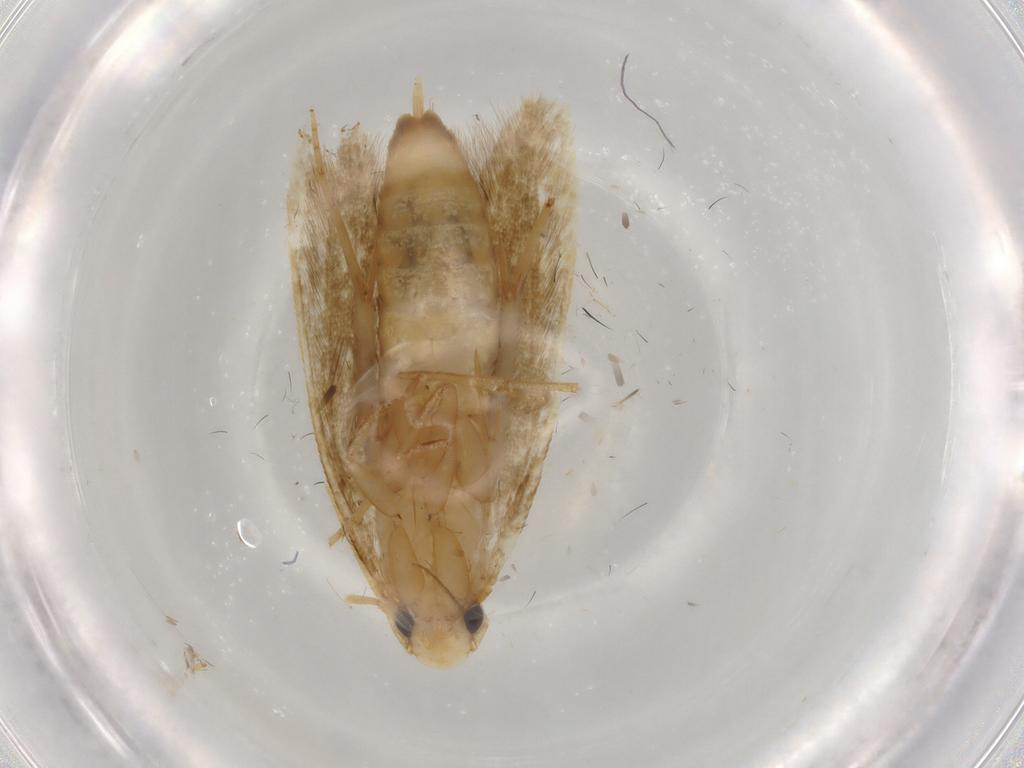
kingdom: Animalia
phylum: Arthropoda
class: Insecta
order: Lepidoptera
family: Tineidae
